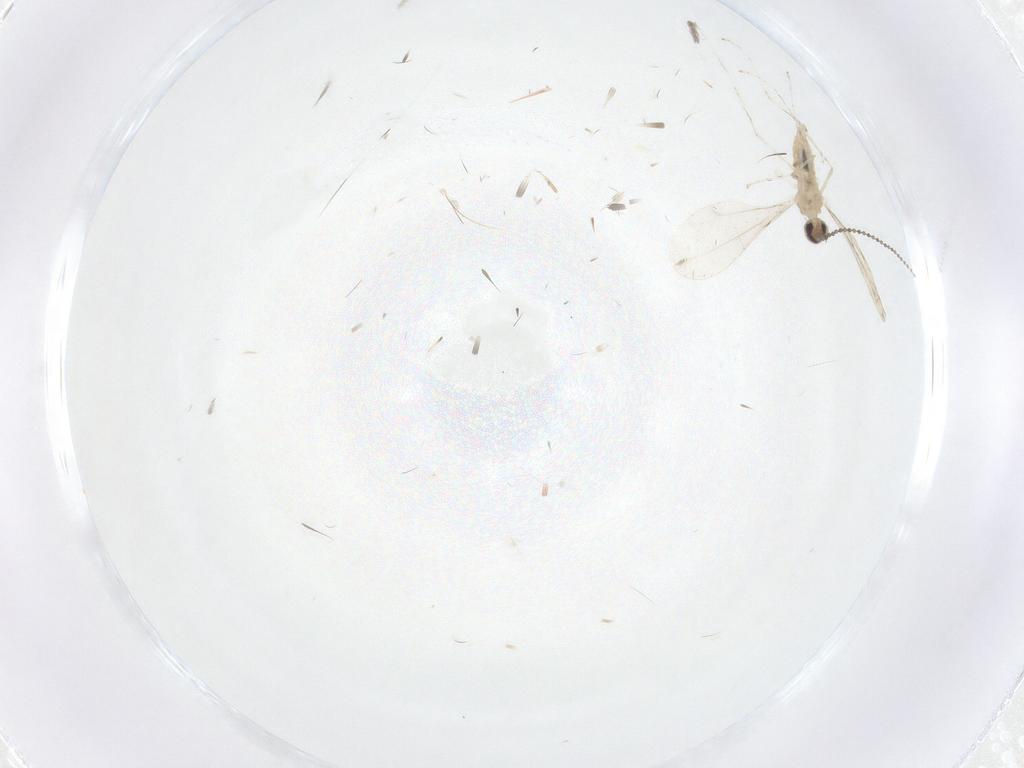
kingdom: Animalia
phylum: Arthropoda
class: Insecta
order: Diptera
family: Cecidomyiidae
